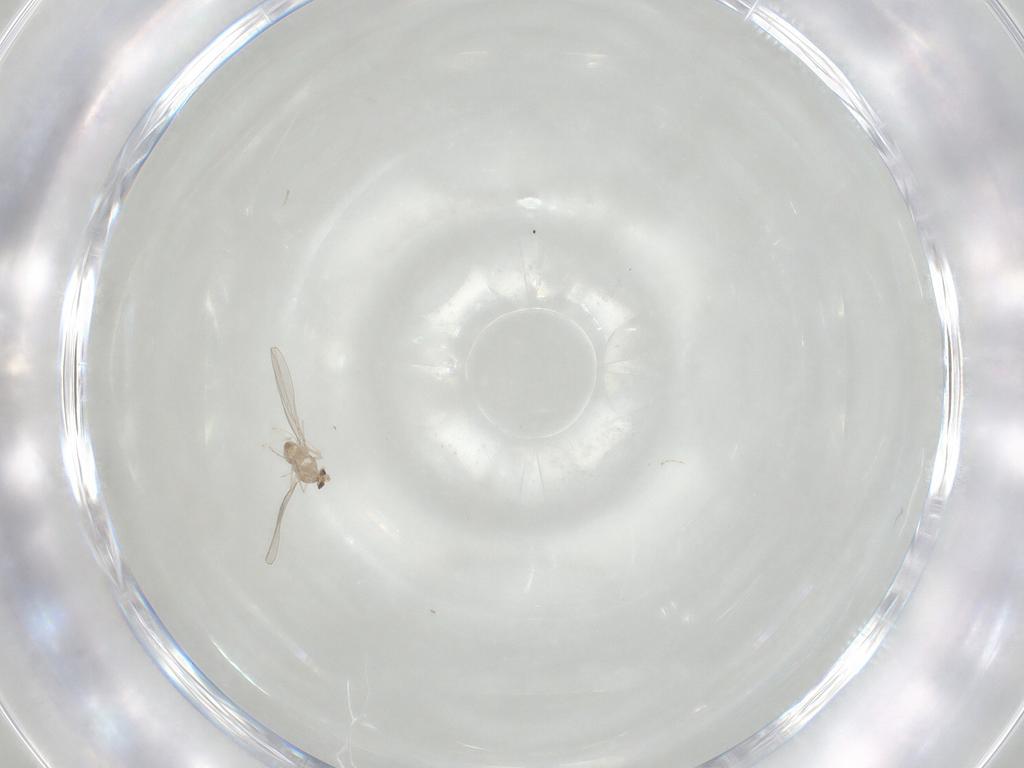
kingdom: Animalia
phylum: Arthropoda
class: Insecta
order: Diptera
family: Cecidomyiidae
